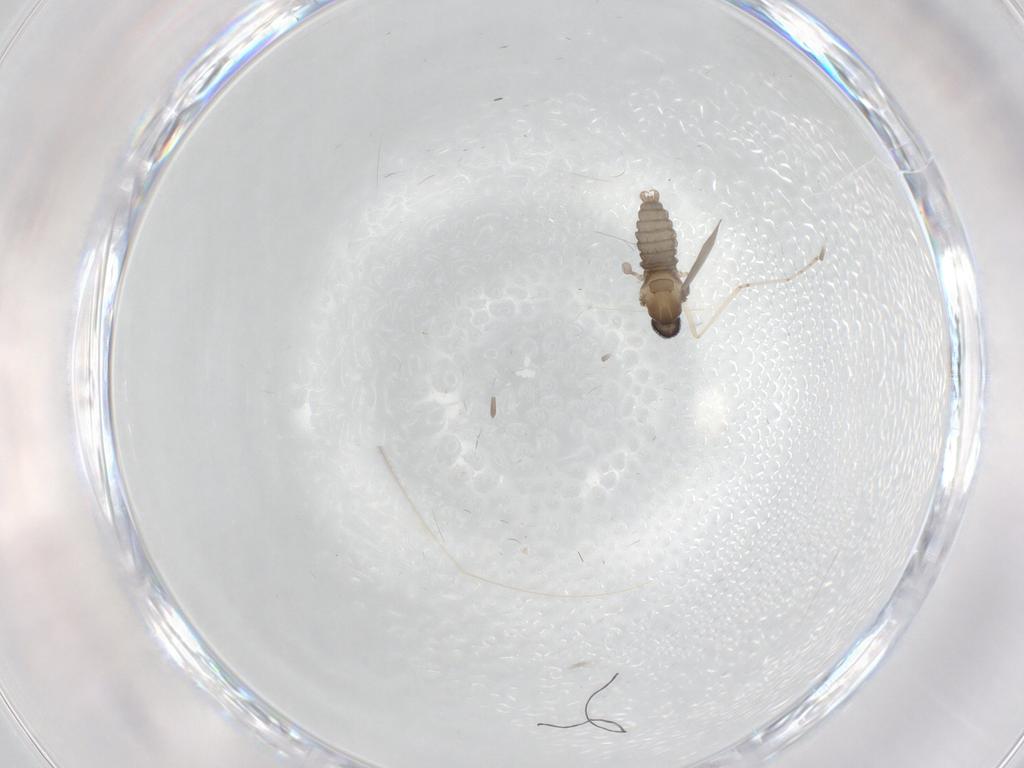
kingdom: Animalia
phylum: Arthropoda
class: Insecta
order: Diptera
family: Cecidomyiidae
